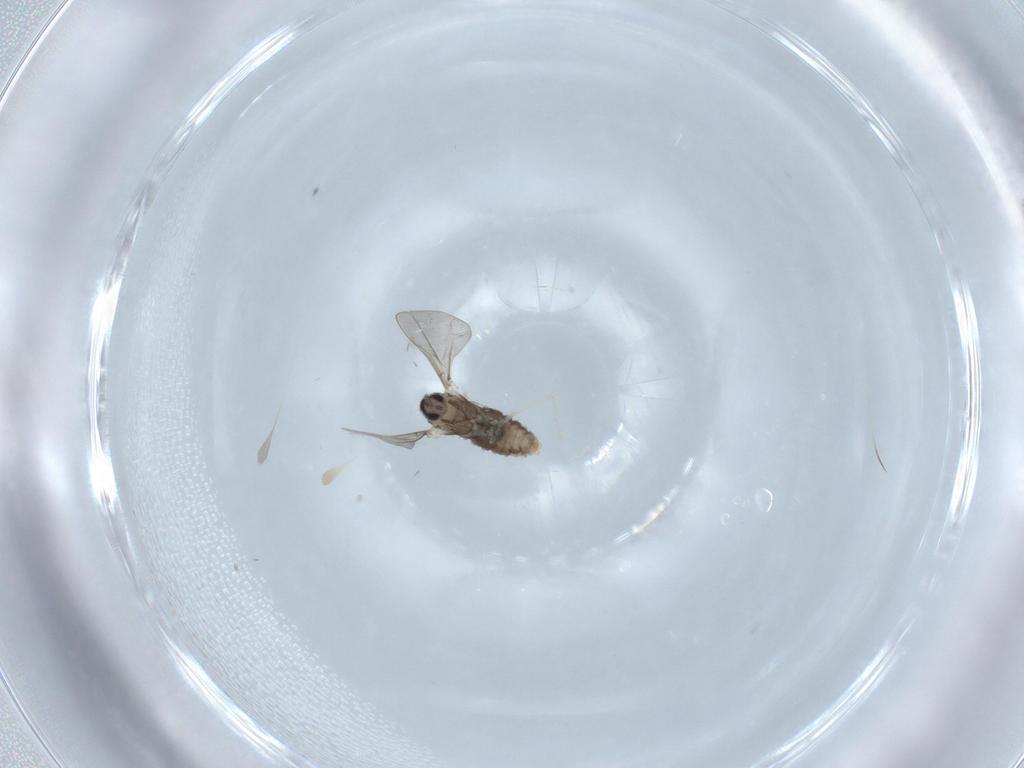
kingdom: Animalia
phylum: Arthropoda
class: Insecta
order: Diptera
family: Cecidomyiidae
